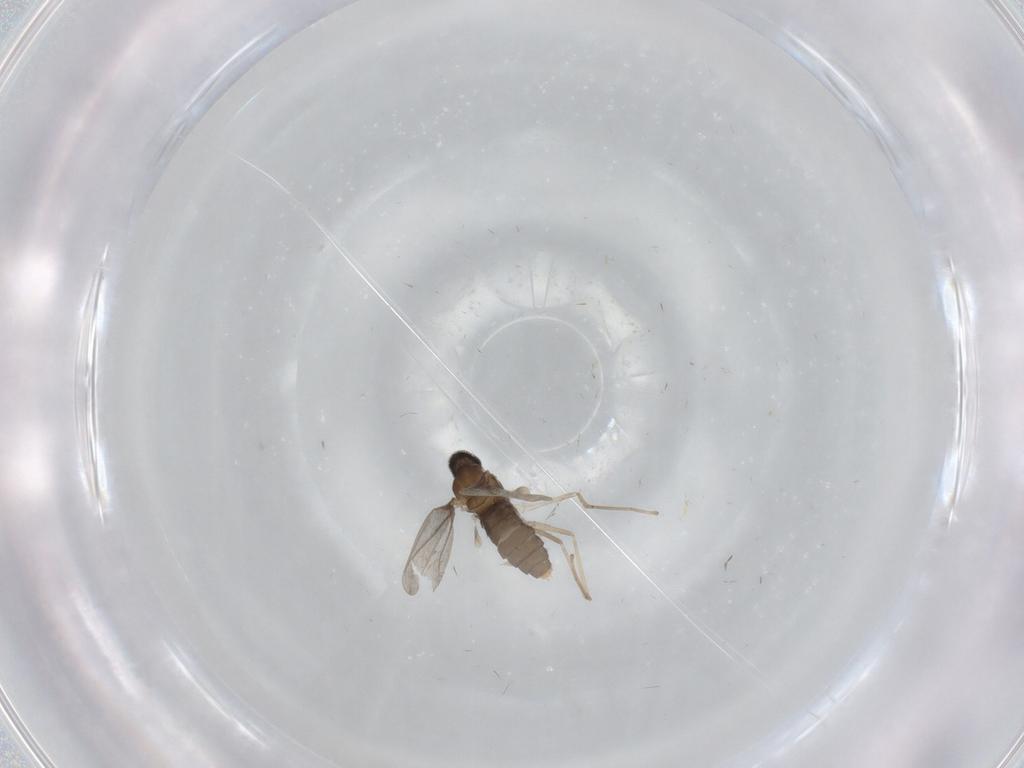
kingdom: Animalia
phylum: Arthropoda
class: Insecta
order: Diptera
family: Cecidomyiidae
